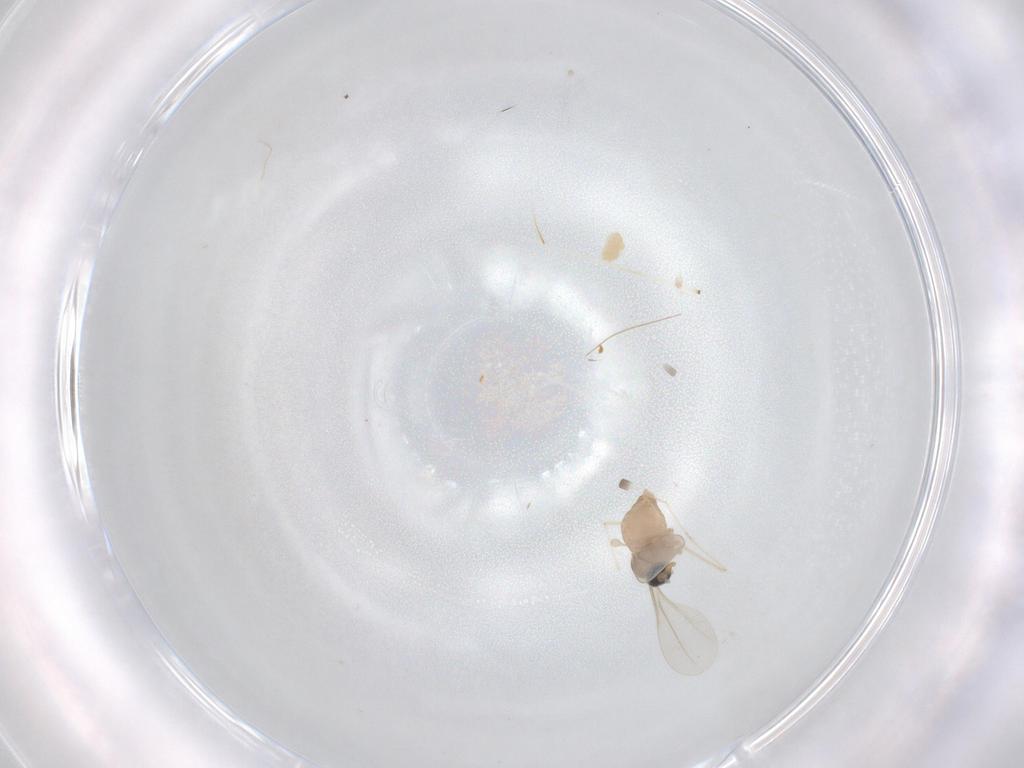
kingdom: Animalia
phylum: Arthropoda
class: Insecta
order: Diptera
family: Cecidomyiidae
